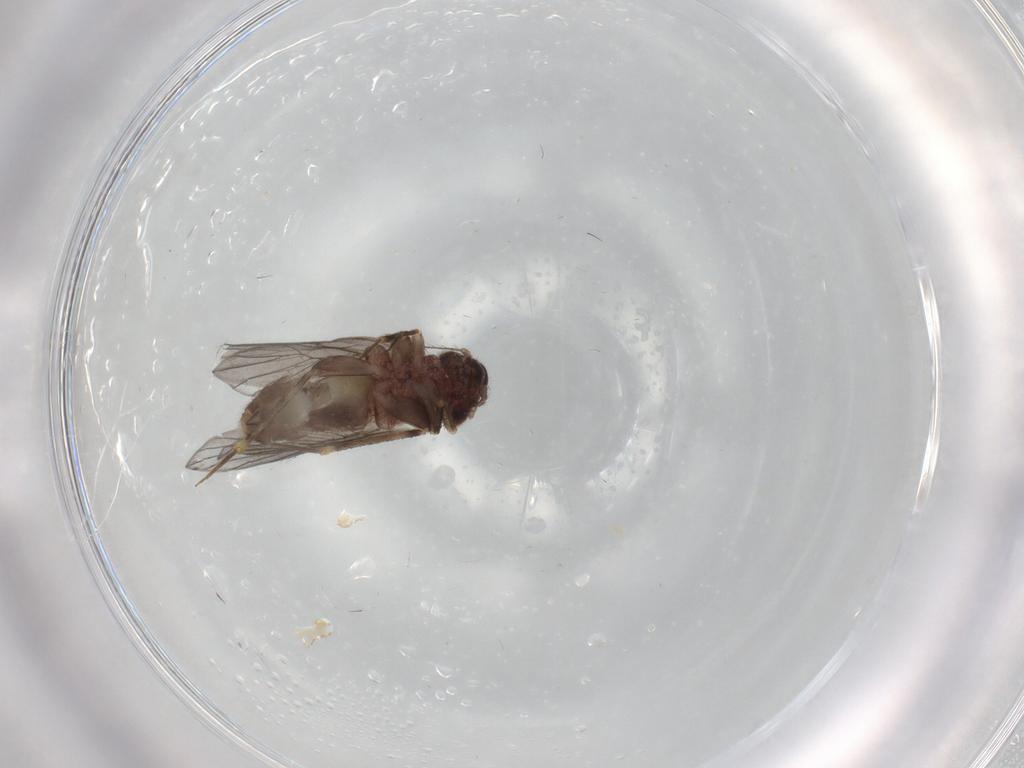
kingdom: Animalia
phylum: Arthropoda
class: Insecta
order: Psocodea
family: Lepidopsocidae
